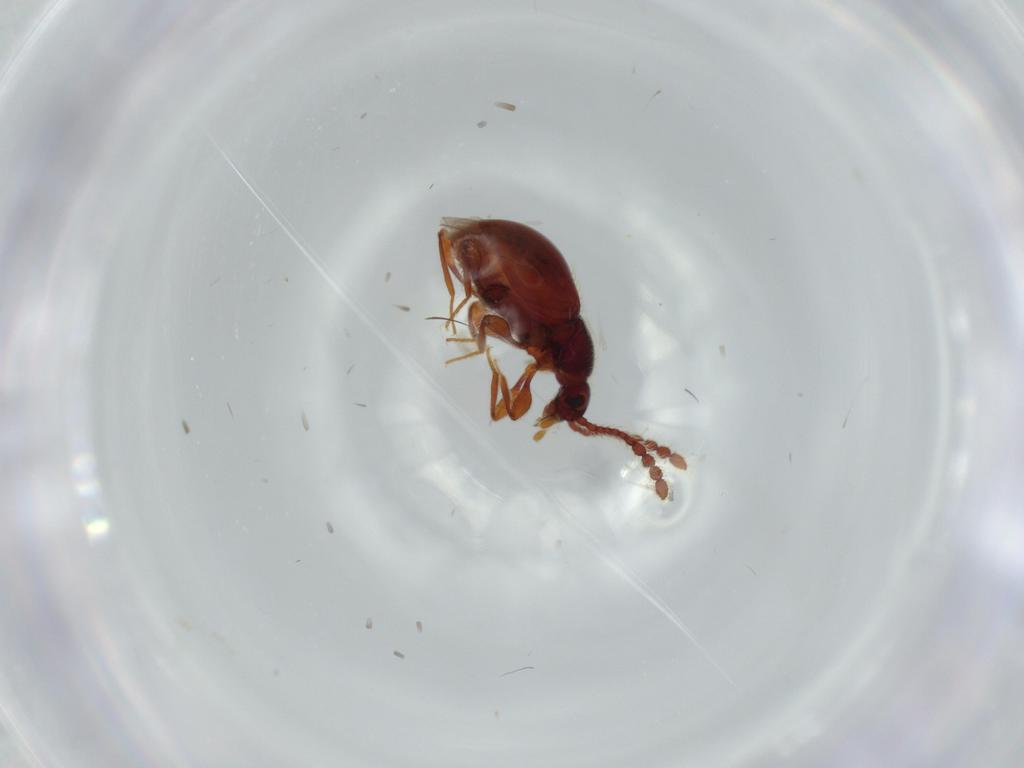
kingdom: Animalia
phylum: Arthropoda
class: Insecta
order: Coleoptera
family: Staphylinidae
